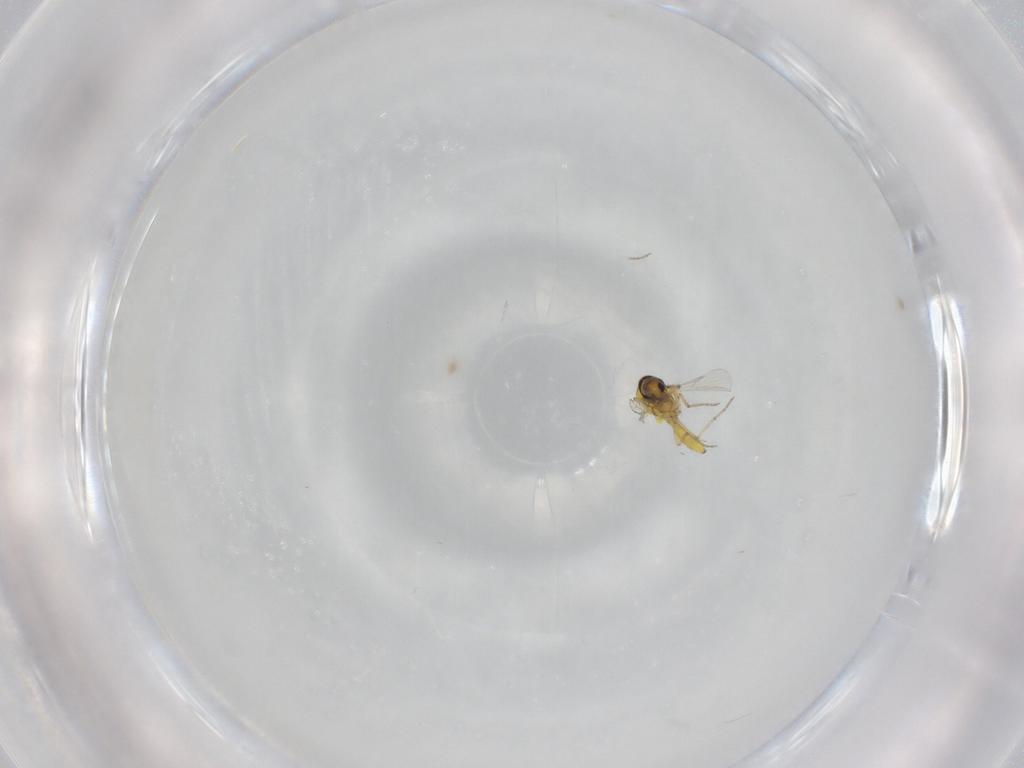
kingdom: Animalia
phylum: Arthropoda
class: Insecta
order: Diptera
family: Ceratopogonidae
